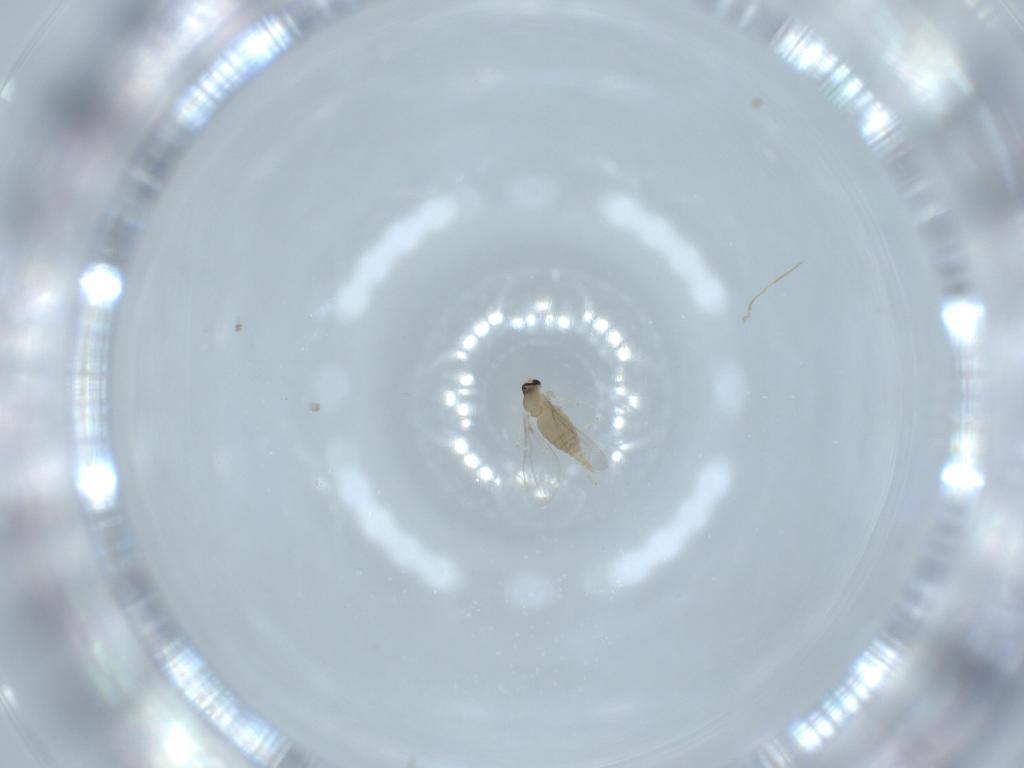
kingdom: Animalia
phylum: Arthropoda
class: Insecta
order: Diptera
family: Cecidomyiidae
